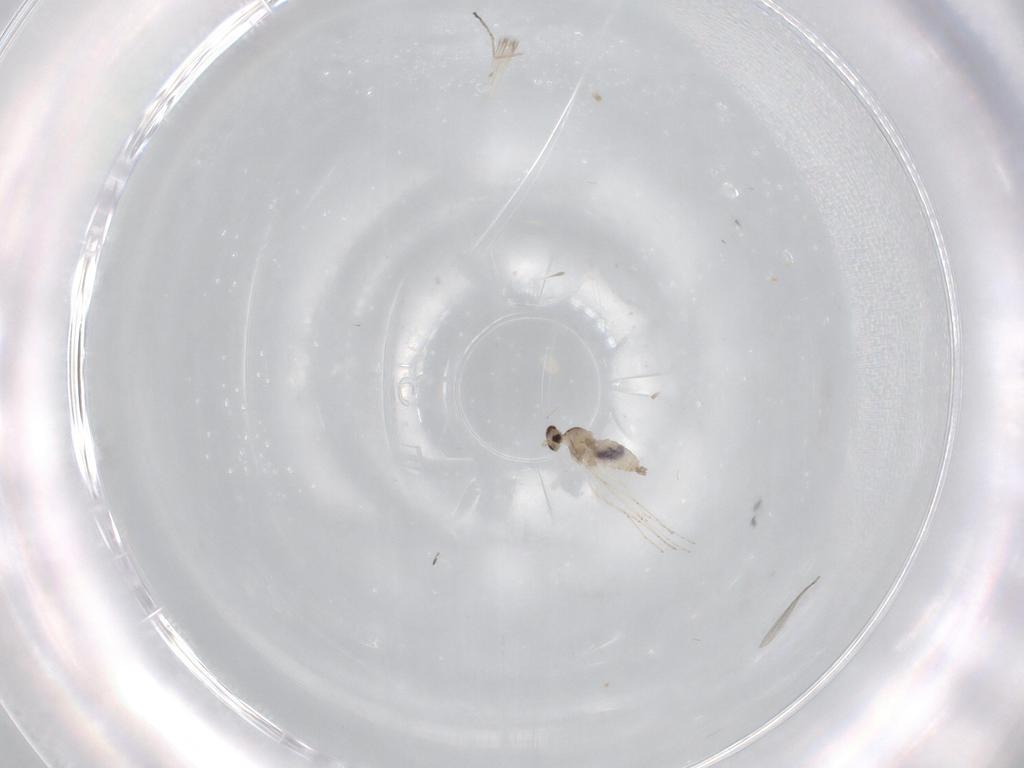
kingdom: Animalia
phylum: Arthropoda
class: Insecta
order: Diptera
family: Cecidomyiidae
